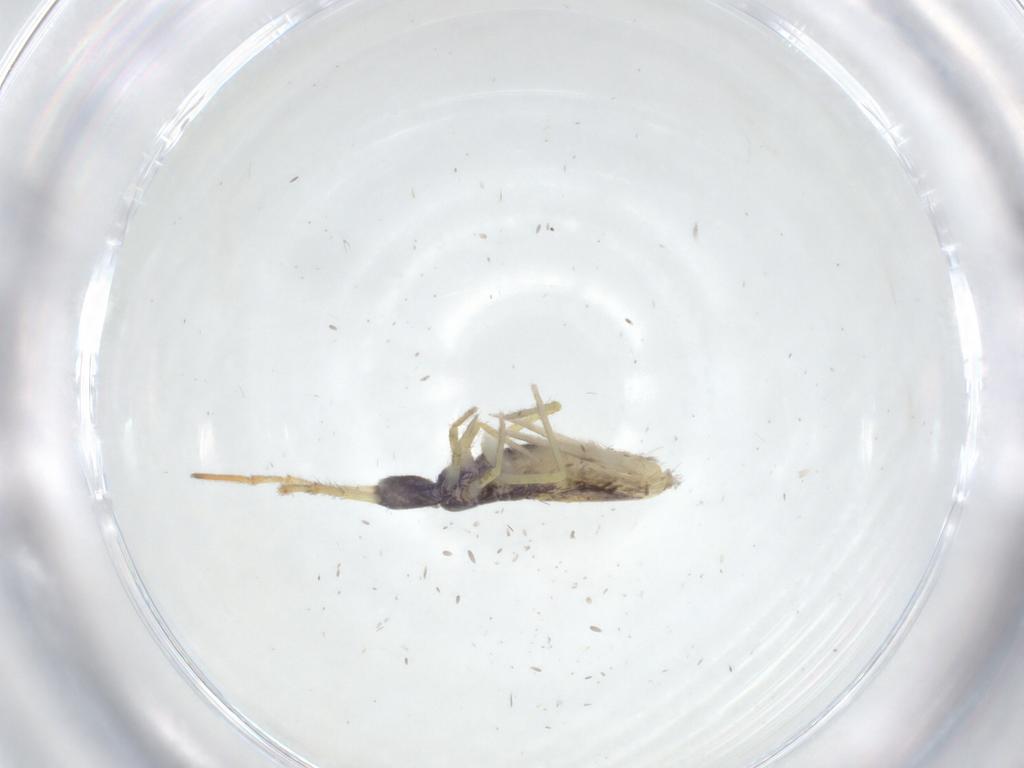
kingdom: Animalia
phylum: Arthropoda
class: Collembola
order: Entomobryomorpha
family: Entomobryidae
